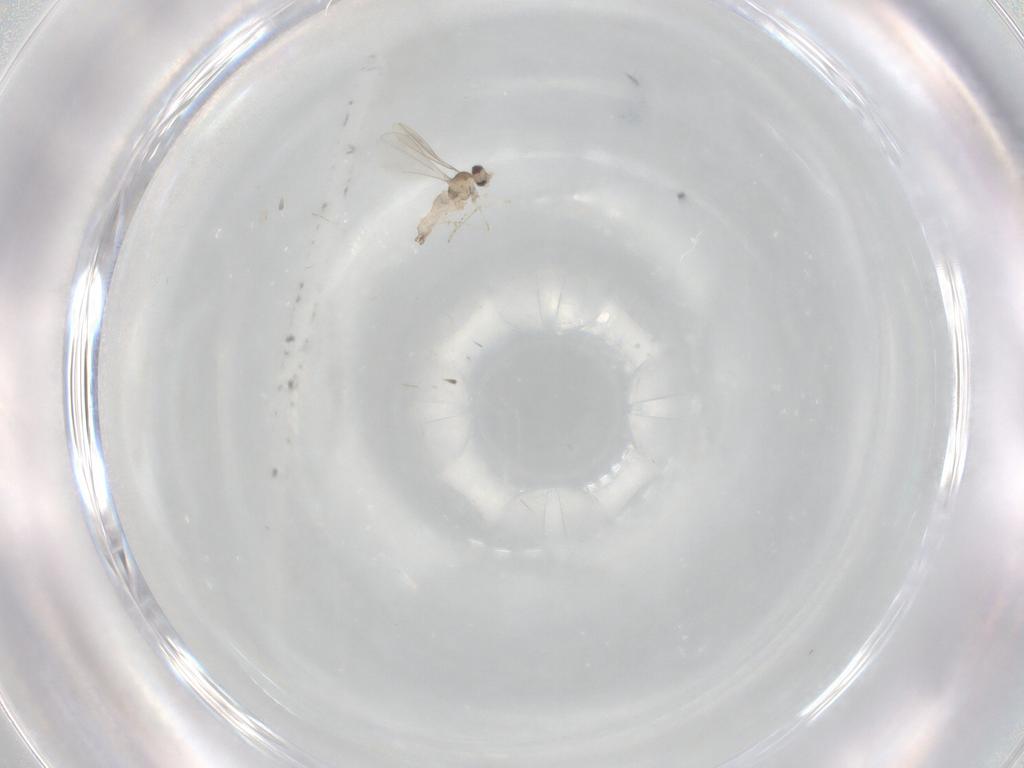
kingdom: Animalia
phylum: Arthropoda
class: Insecta
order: Diptera
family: Cecidomyiidae
